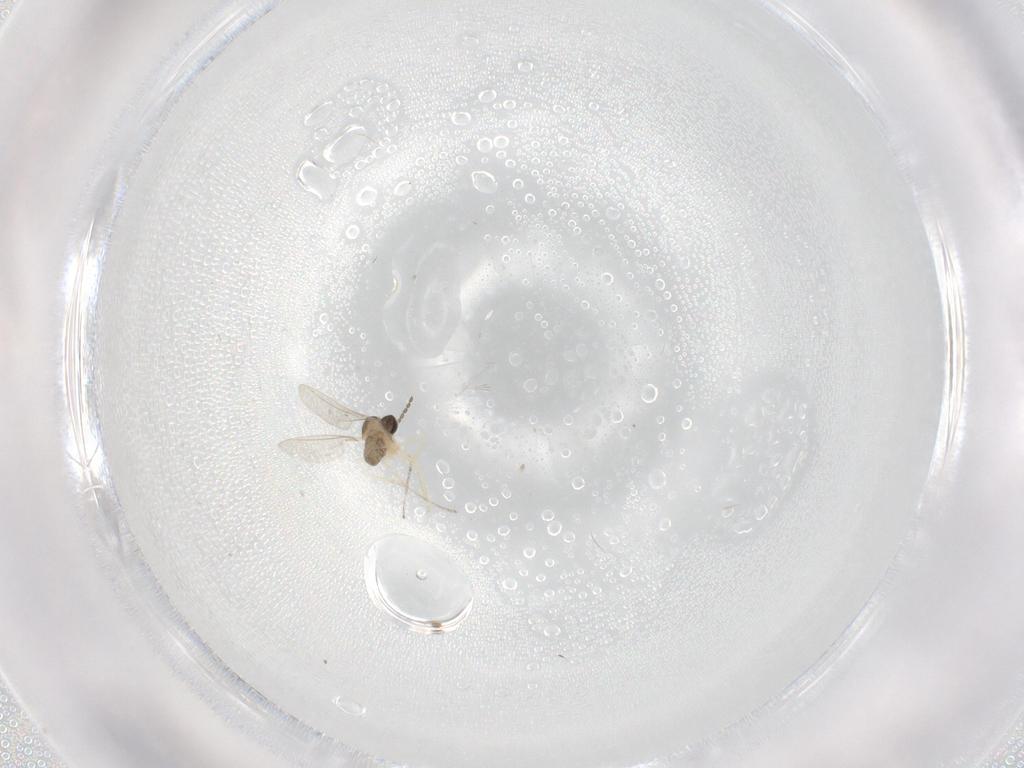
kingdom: Animalia
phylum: Arthropoda
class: Insecta
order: Diptera
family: Cecidomyiidae
